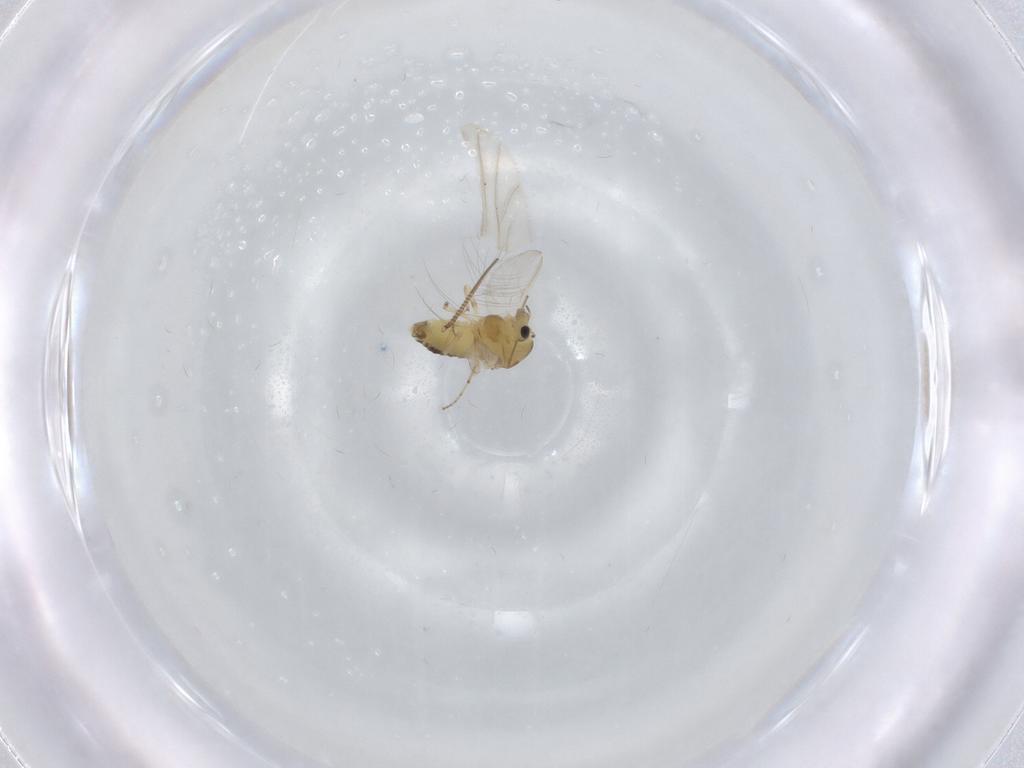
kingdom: Animalia
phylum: Arthropoda
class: Insecta
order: Diptera
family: Chironomidae
